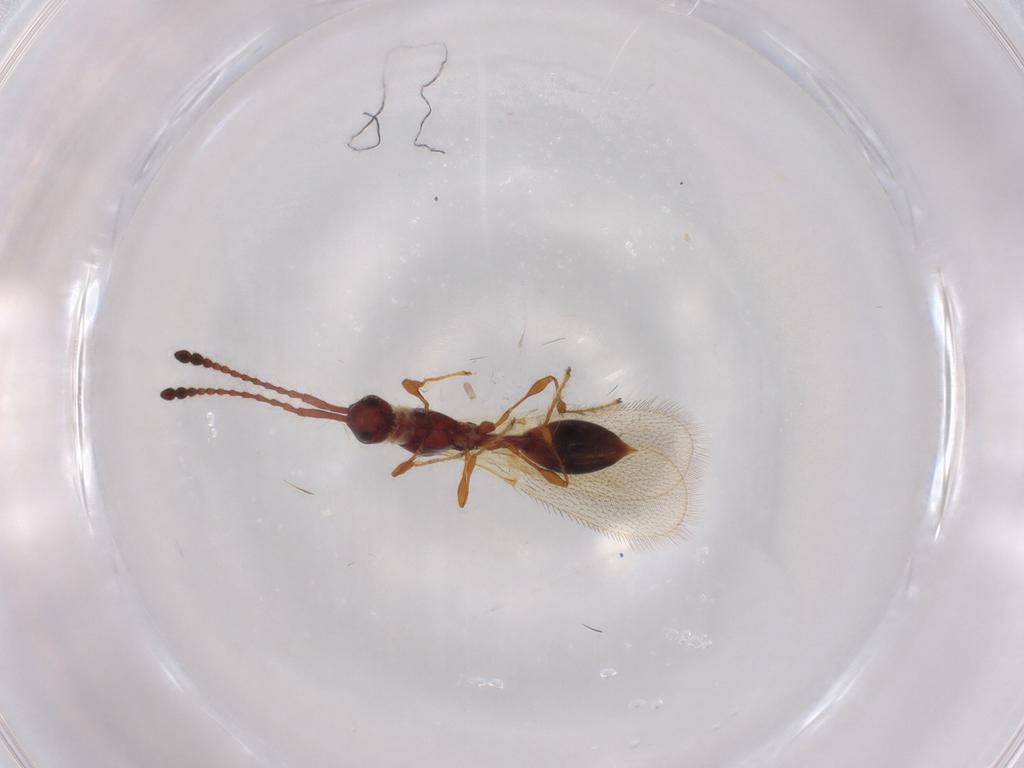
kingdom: Animalia
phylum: Arthropoda
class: Insecta
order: Hymenoptera
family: Diapriidae
